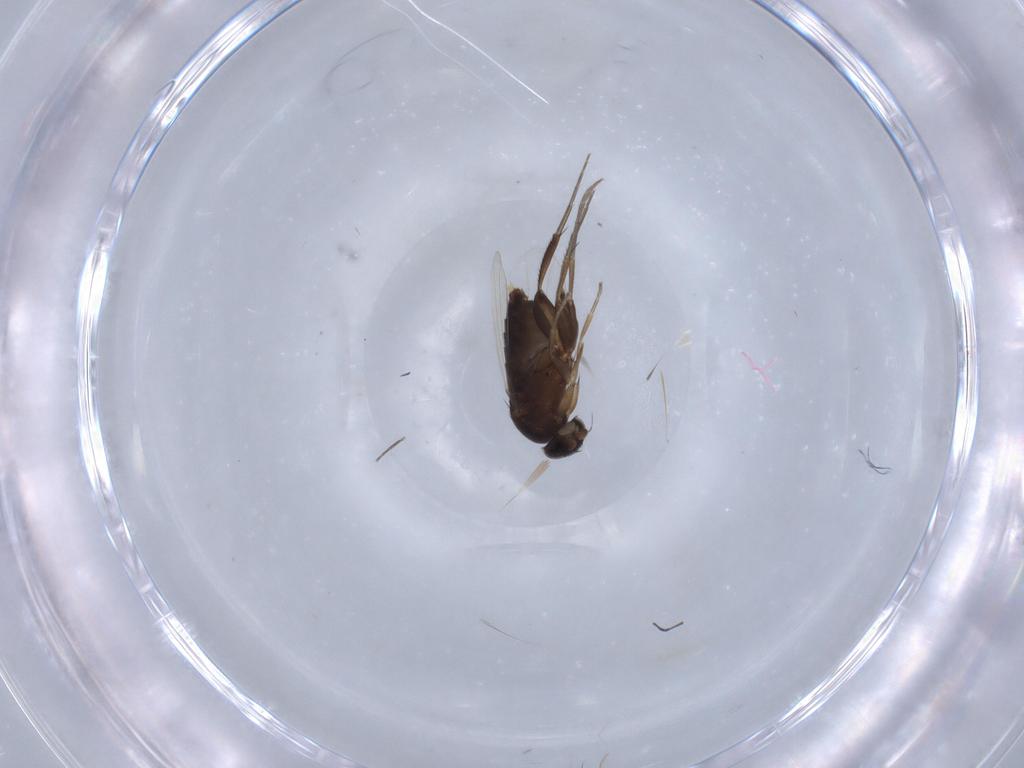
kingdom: Animalia
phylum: Arthropoda
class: Insecta
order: Diptera
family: Phoridae
